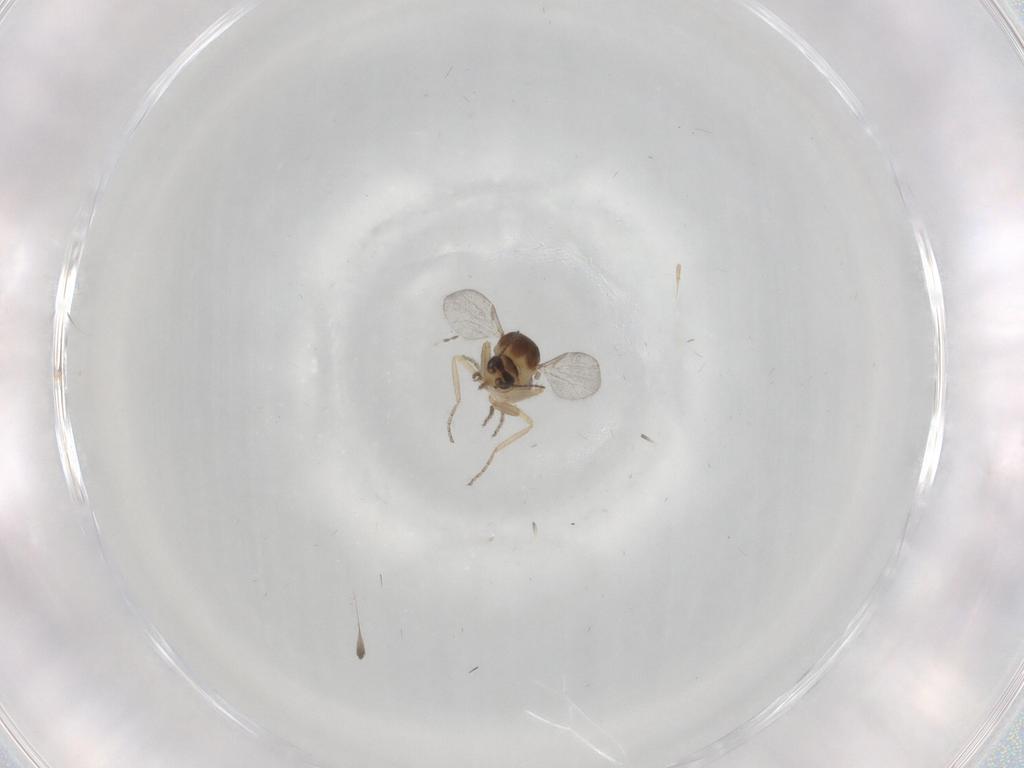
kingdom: Animalia
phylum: Arthropoda
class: Insecta
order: Diptera
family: Ceratopogonidae
